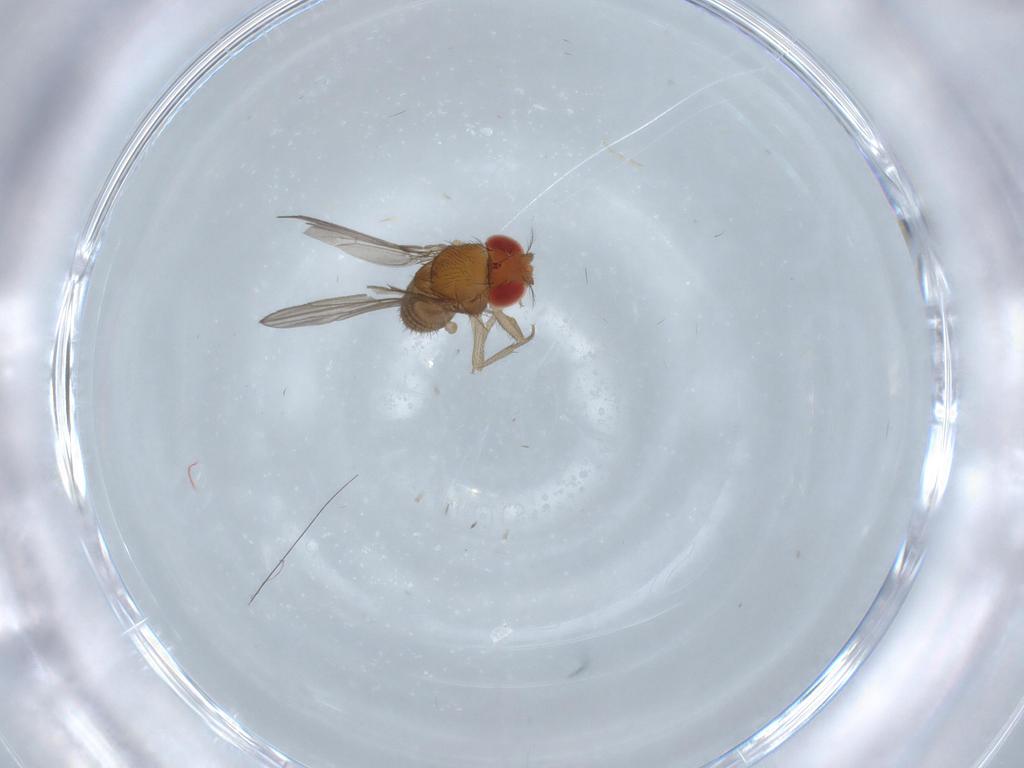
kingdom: Animalia
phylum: Arthropoda
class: Insecta
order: Diptera
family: Drosophilidae
